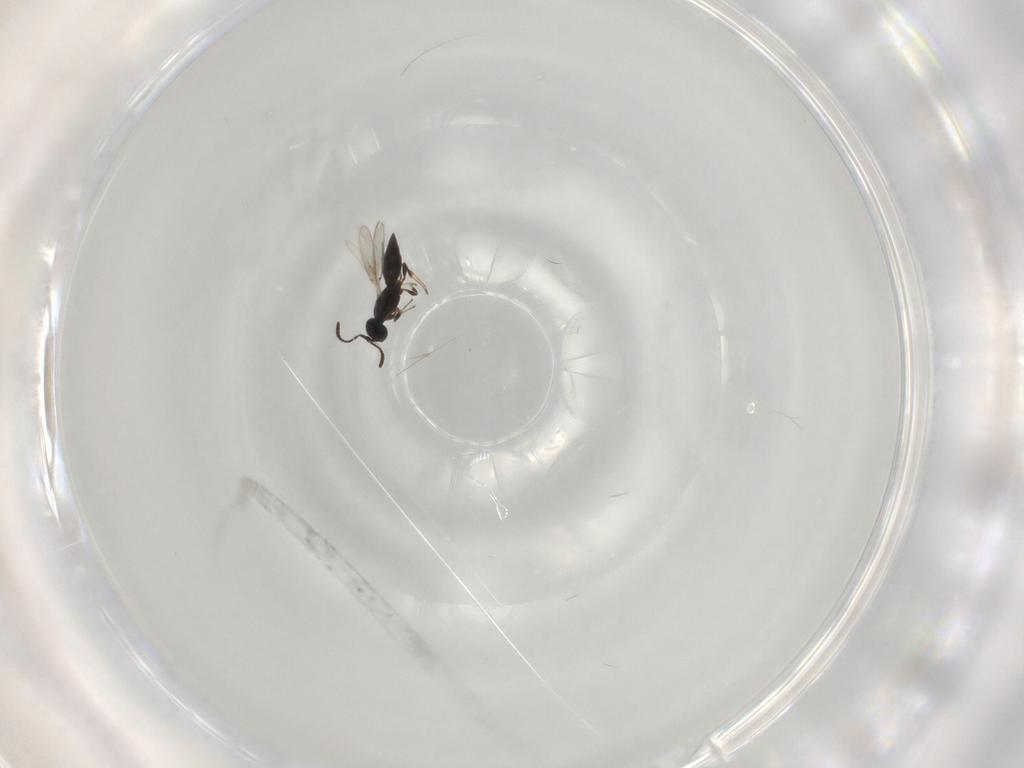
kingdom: Animalia
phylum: Arthropoda
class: Insecta
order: Hymenoptera
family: Scelionidae
